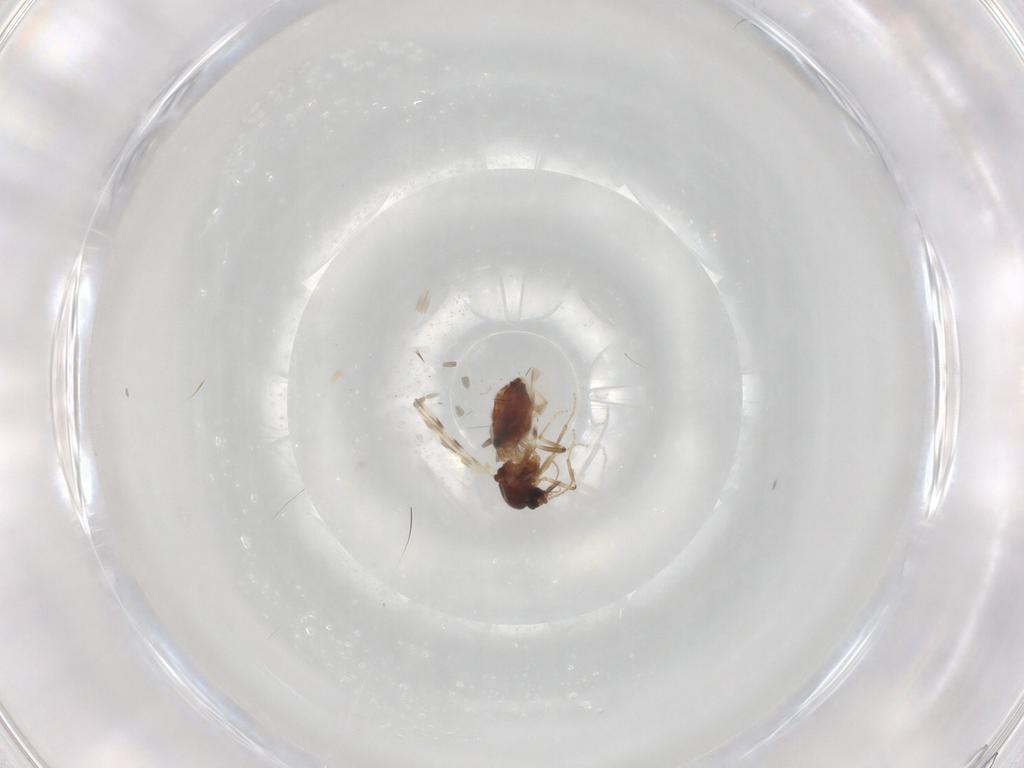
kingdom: Animalia
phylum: Arthropoda
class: Insecta
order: Diptera
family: Ceratopogonidae
